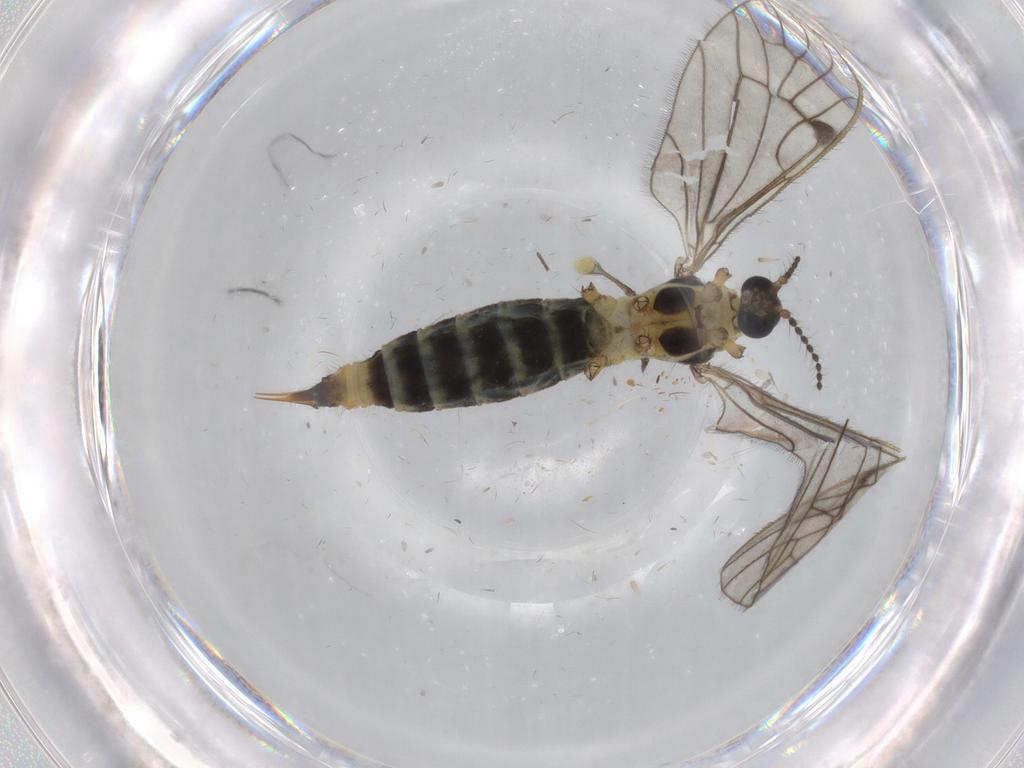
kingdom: Animalia
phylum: Arthropoda
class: Insecta
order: Diptera
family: Limoniidae
